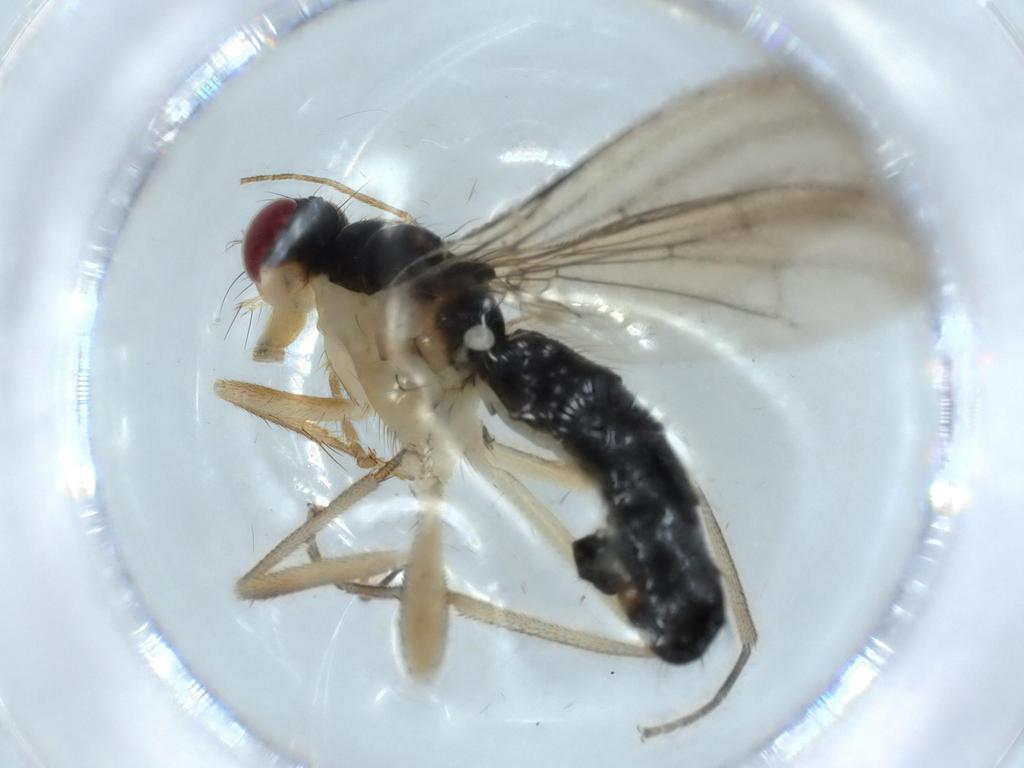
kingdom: Animalia
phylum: Arthropoda
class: Insecta
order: Diptera
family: Scathophagidae
